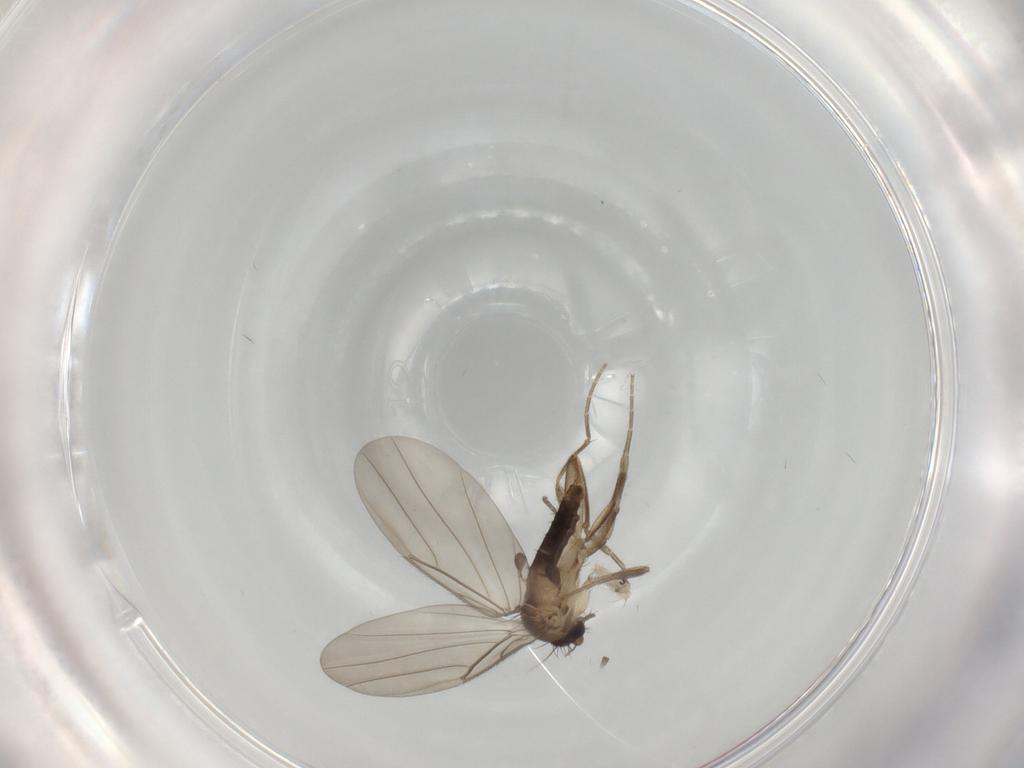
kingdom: Animalia
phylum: Arthropoda
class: Insecta
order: Diptera
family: Phoridae
